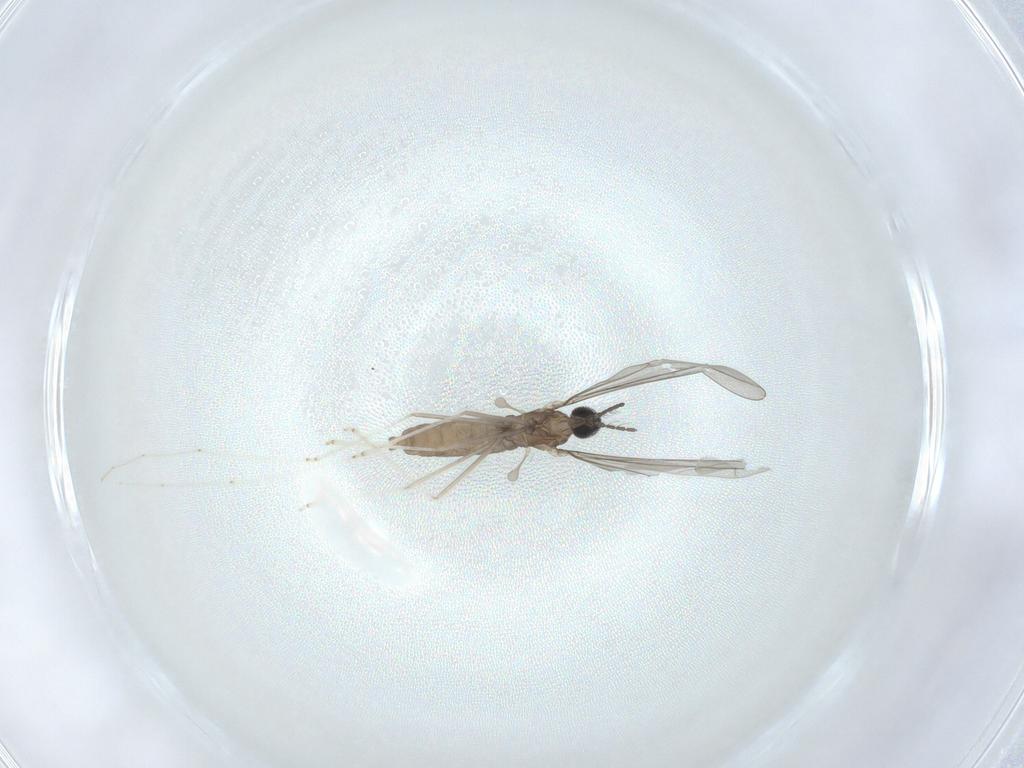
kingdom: Animalia
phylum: Arthropoda
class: Insecta
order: Diptera
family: Cecidomyiidae
